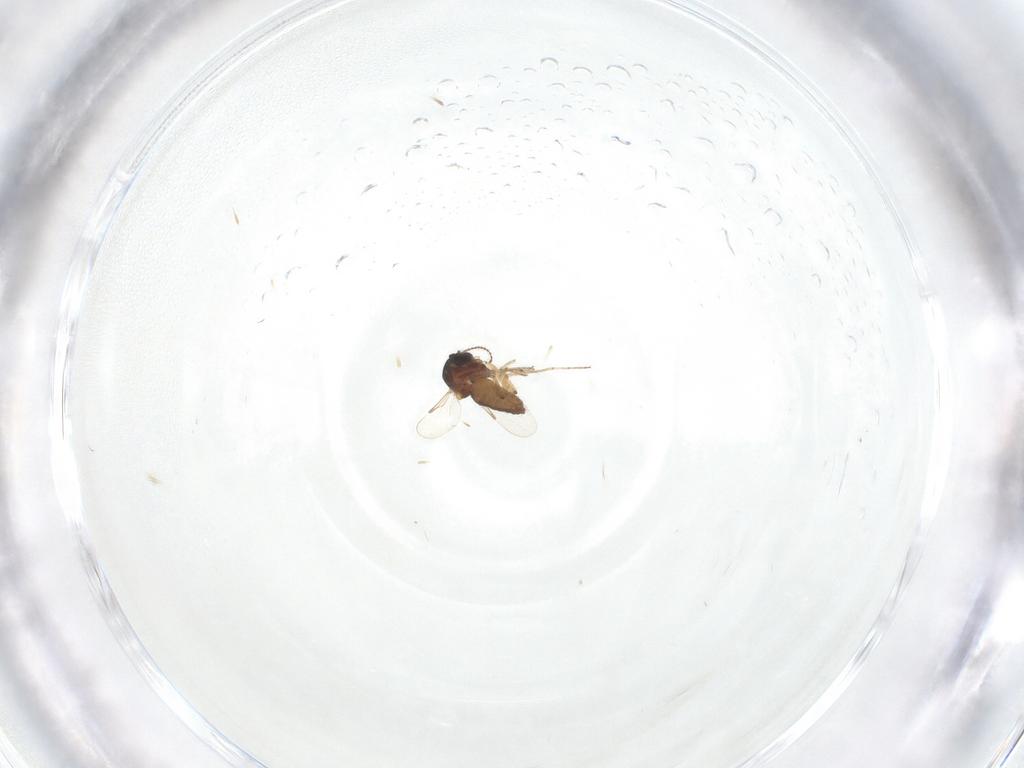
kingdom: Animalia
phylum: Arthropoda
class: Insecta
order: Diptera
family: Ceratopogonidae
